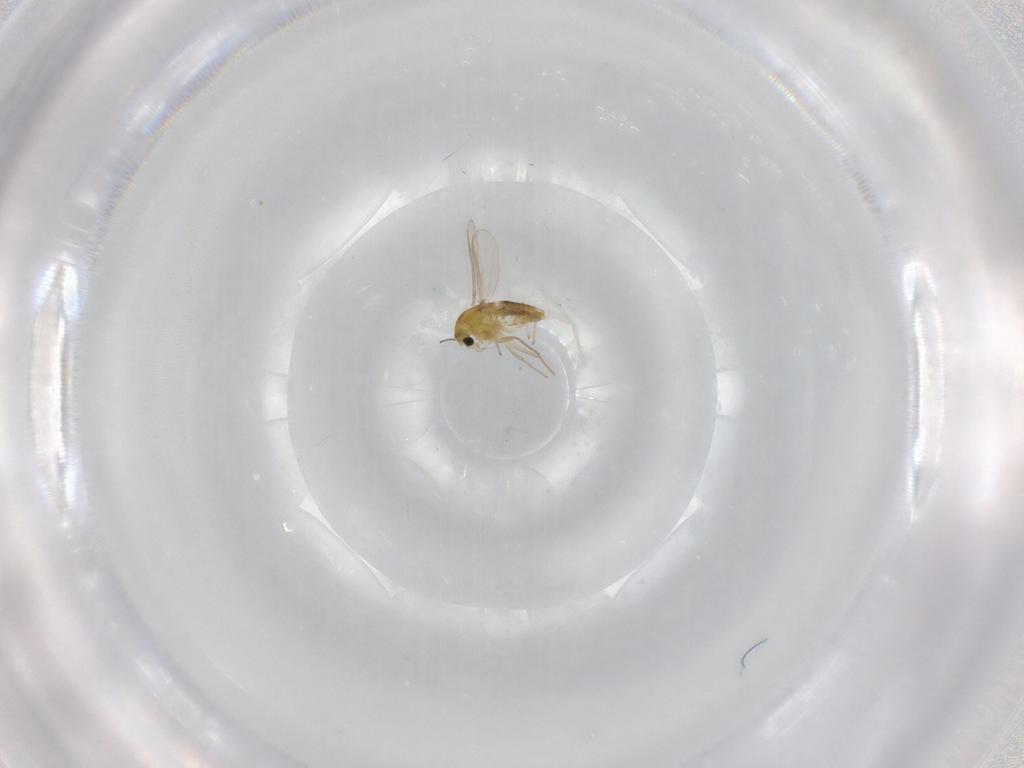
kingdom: Animalia
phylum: Arthropoda
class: Insecta
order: Diptera
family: Chironomidae
